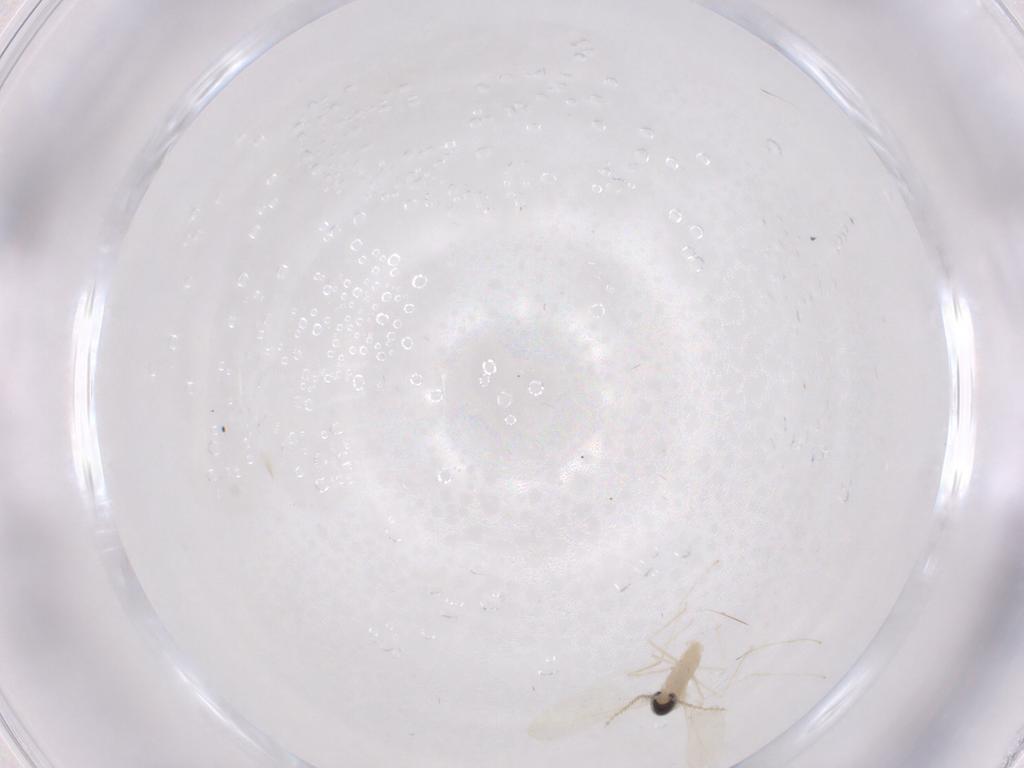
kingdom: Animalia
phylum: Arthropoda
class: Insecta
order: Diptera
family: Cecidomyiidae
